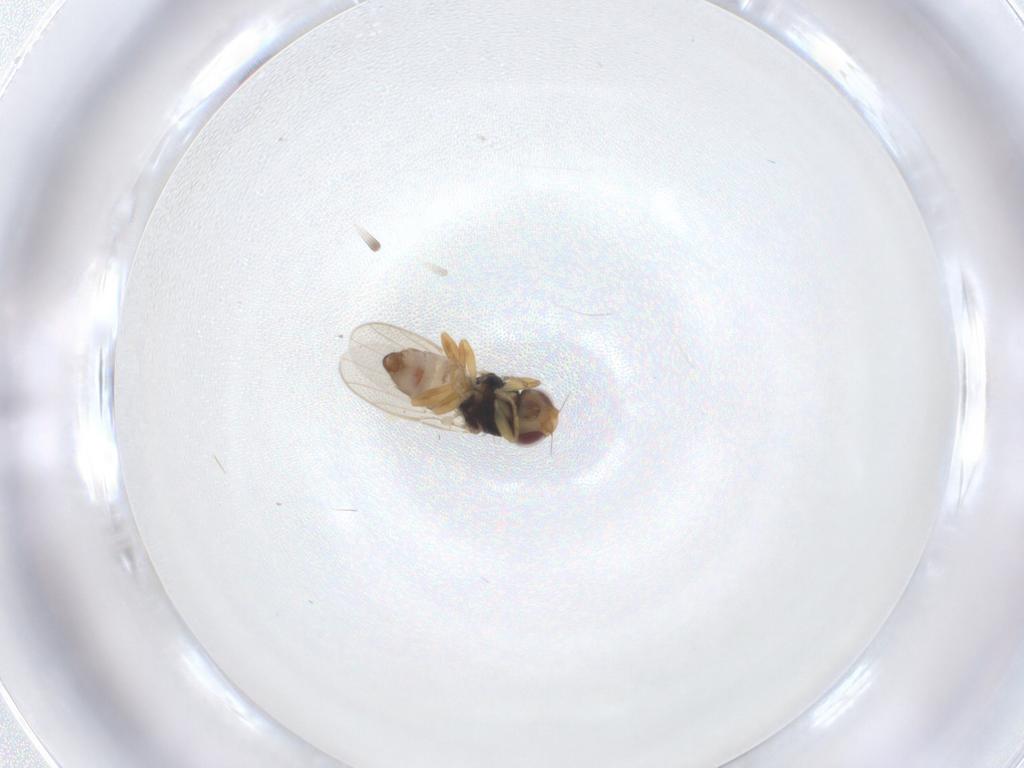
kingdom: Animalia
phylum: Arthropoda
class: Insecta
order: Diptera
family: Chloropidae
